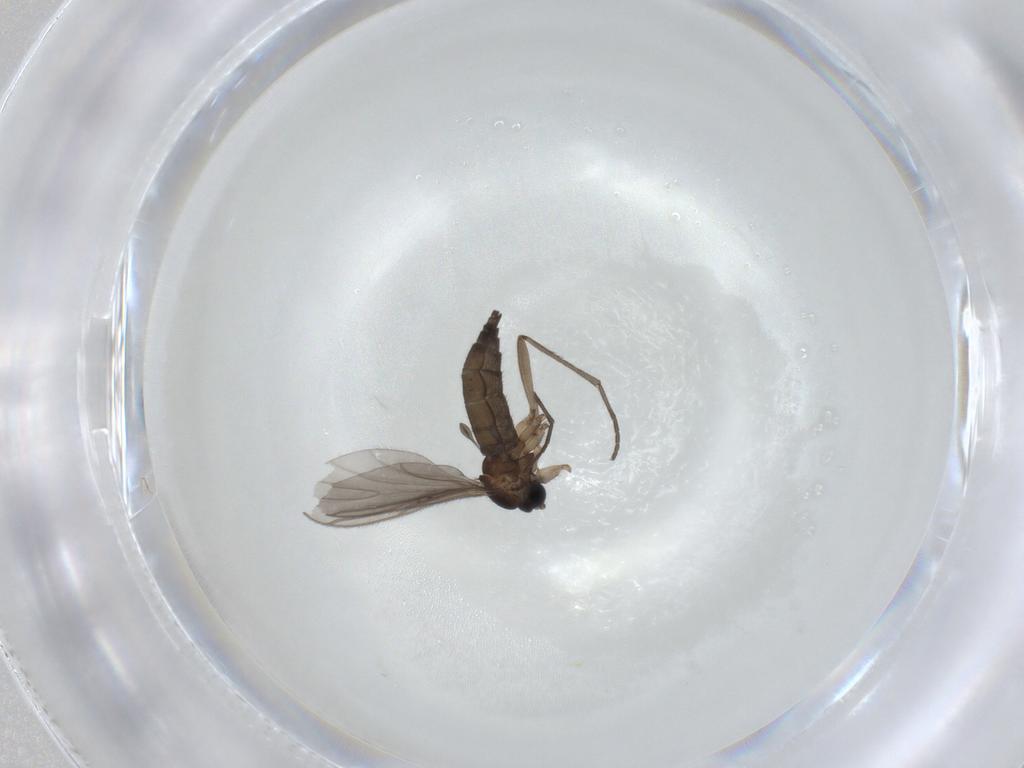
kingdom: Animalia
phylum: Arthropoda
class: Insecta
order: Diptera
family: Sciaridae
